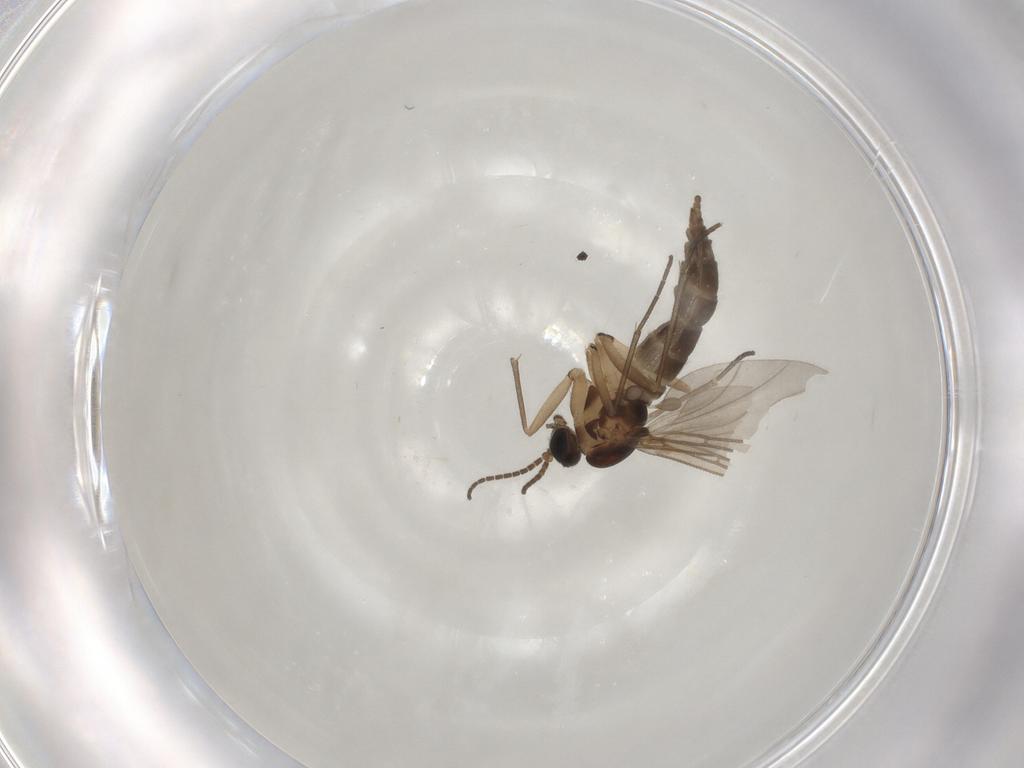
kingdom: Animalia
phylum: Arthropoda
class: Insecta
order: Diptera
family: Sciaridae
